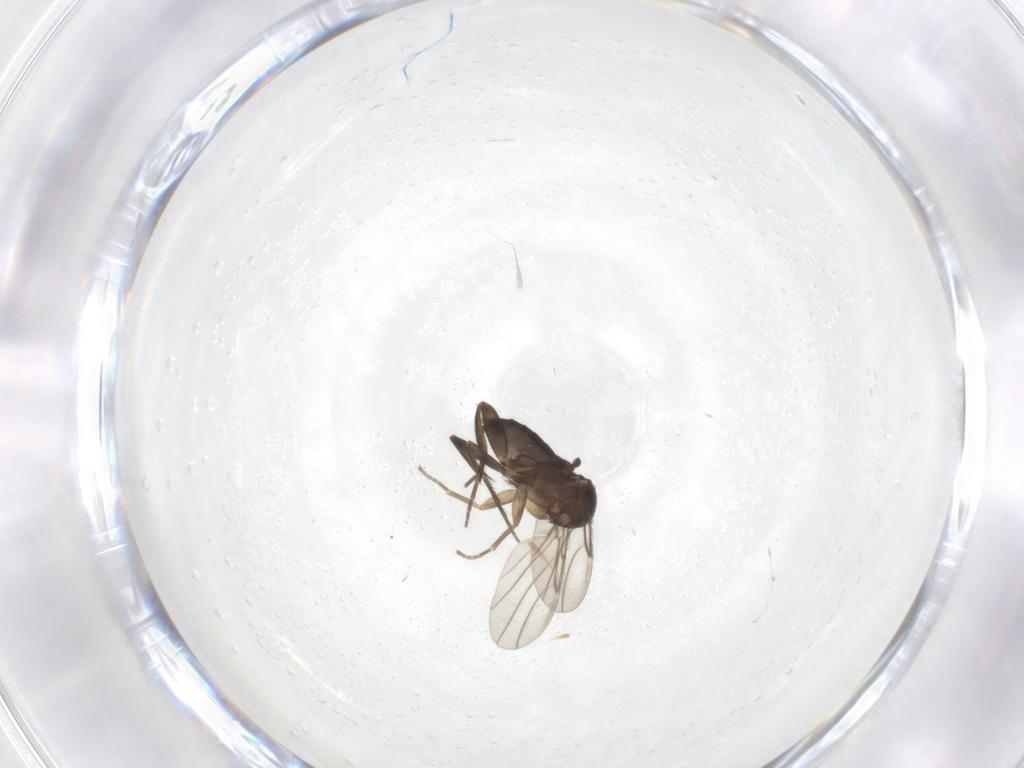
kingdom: Animalia
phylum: Arthropoda
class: Insecta
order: Diptera
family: Phoridae
